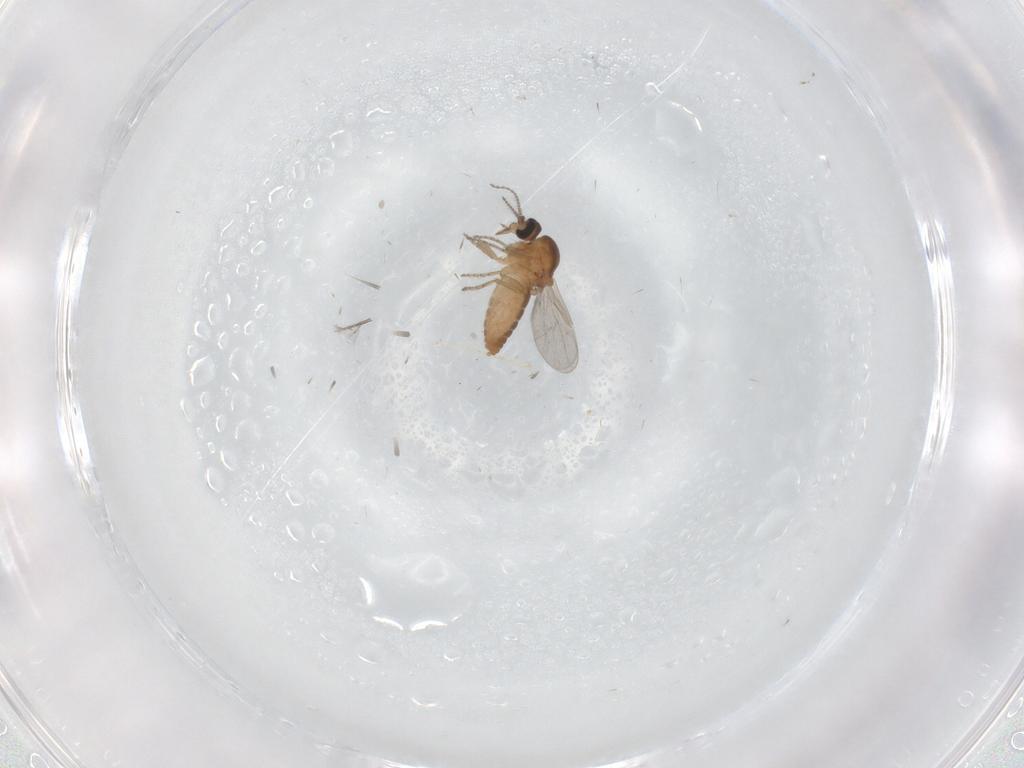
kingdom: Animalia
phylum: Arthropoda
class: Insecta
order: Diptera
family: Ceratopogonidae
